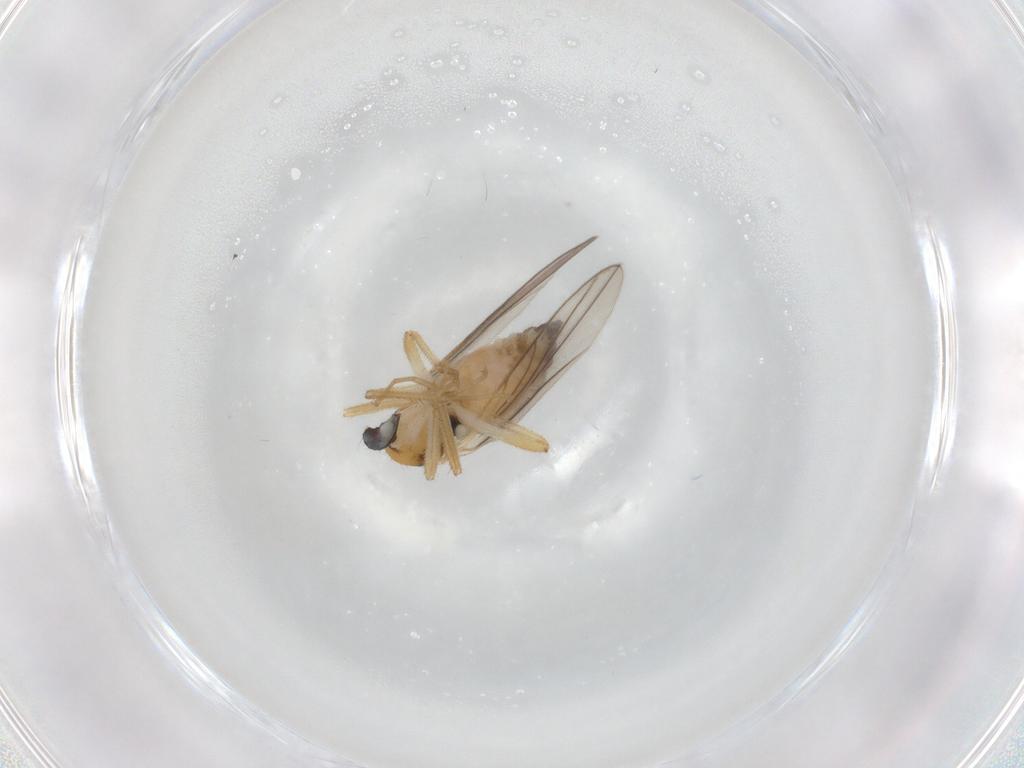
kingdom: Animalia
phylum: Arthropoda
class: Insecta
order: Diptera
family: Hybotidae
